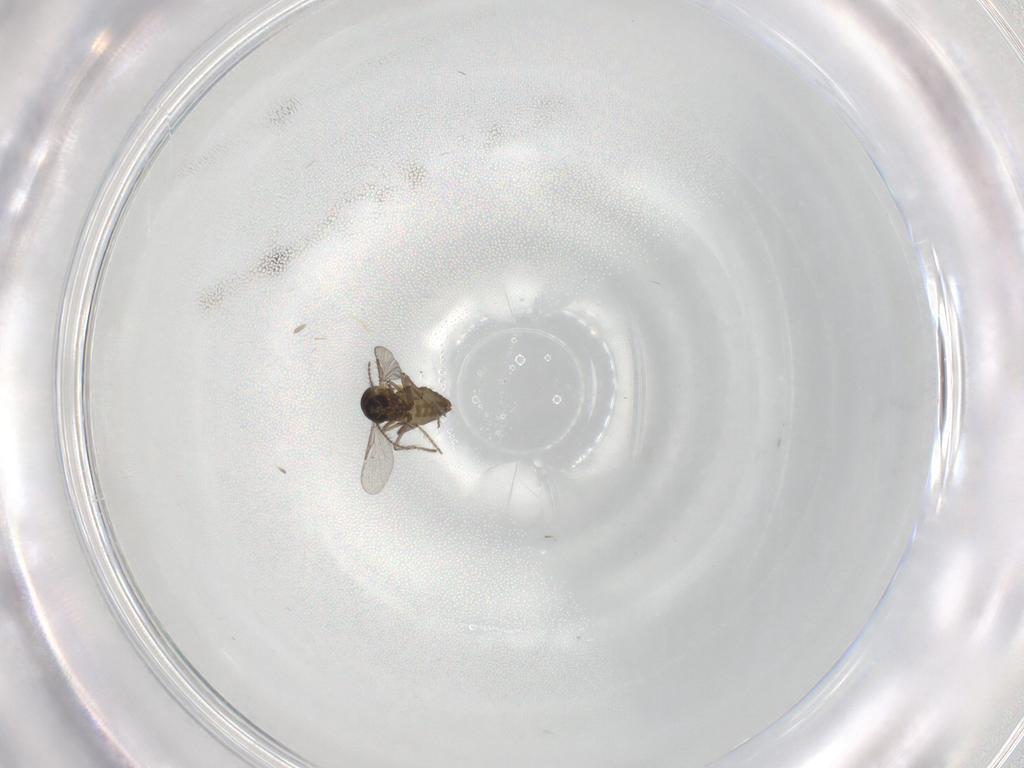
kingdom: Animalia
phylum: Arthropoda
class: Insecta
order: Diptera
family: Ceratopogonidae
